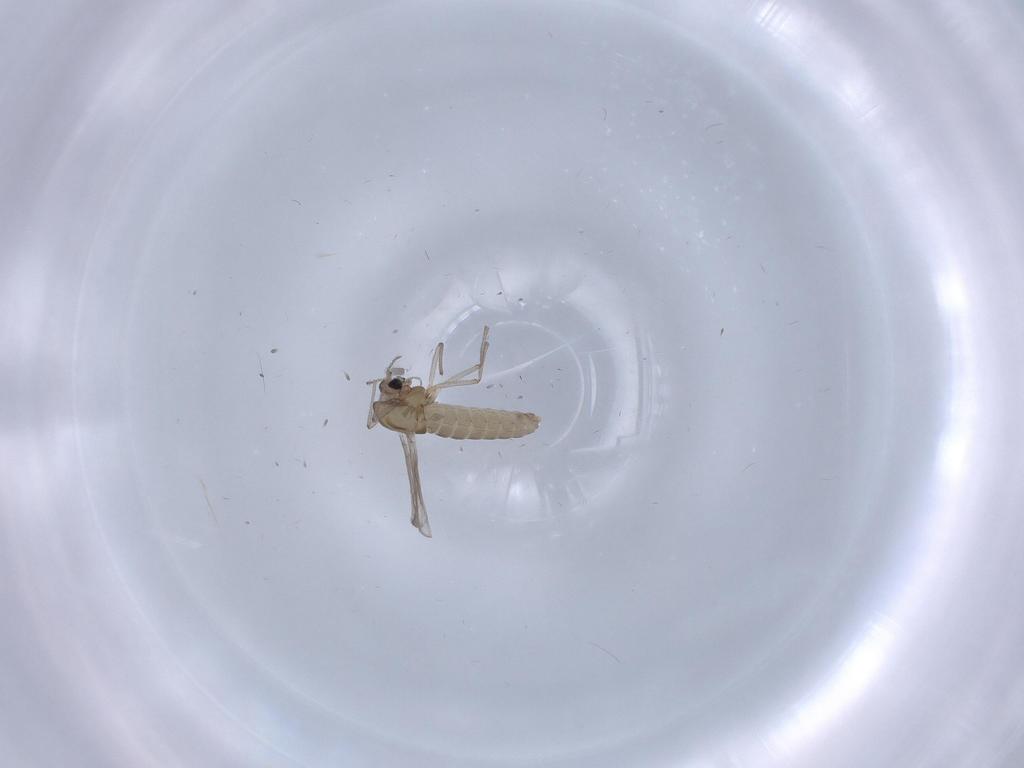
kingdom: Animalia
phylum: Arthropoda
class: Insecta
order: Diptera
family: Chironomidae
